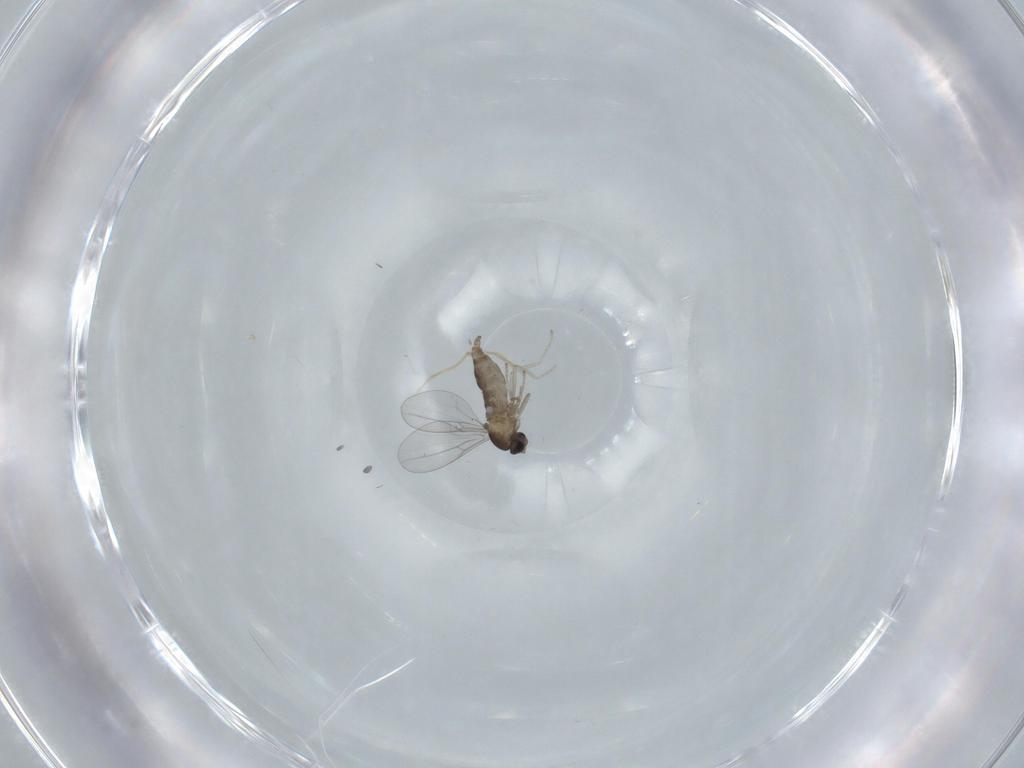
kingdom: Animalia
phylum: Arthropoda
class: Insecta
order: Diptera
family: Cecidomyiidae
